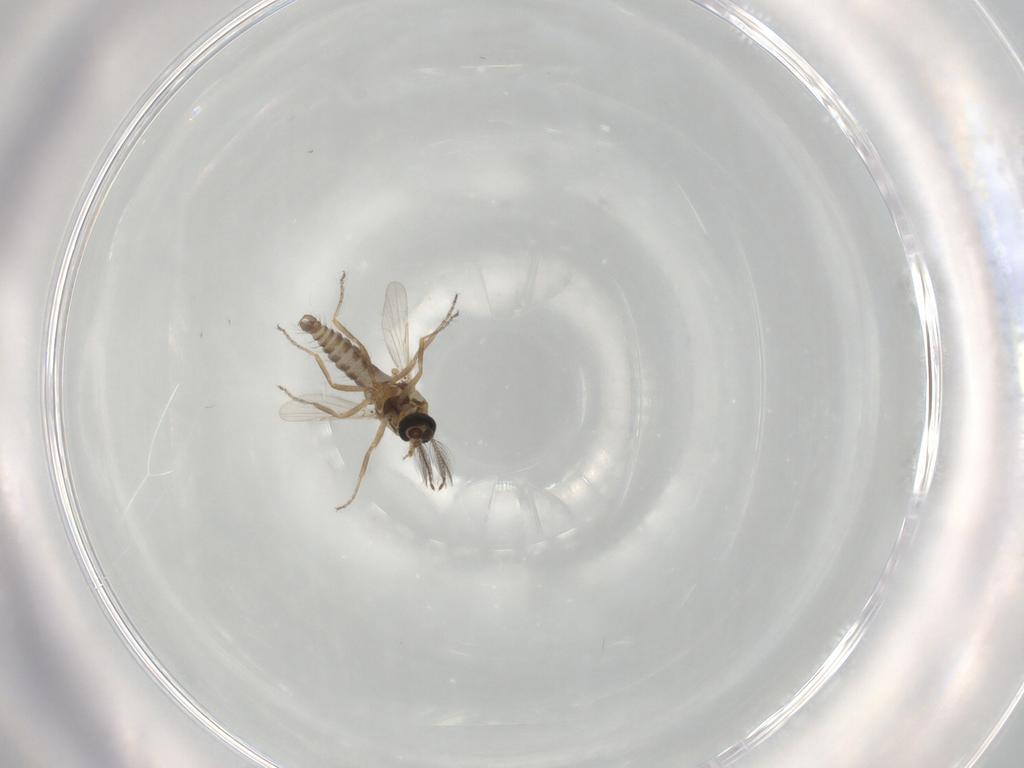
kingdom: Animalia
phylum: Arthropoda
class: Insecta
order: Diptera
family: Ceratopogonidae
